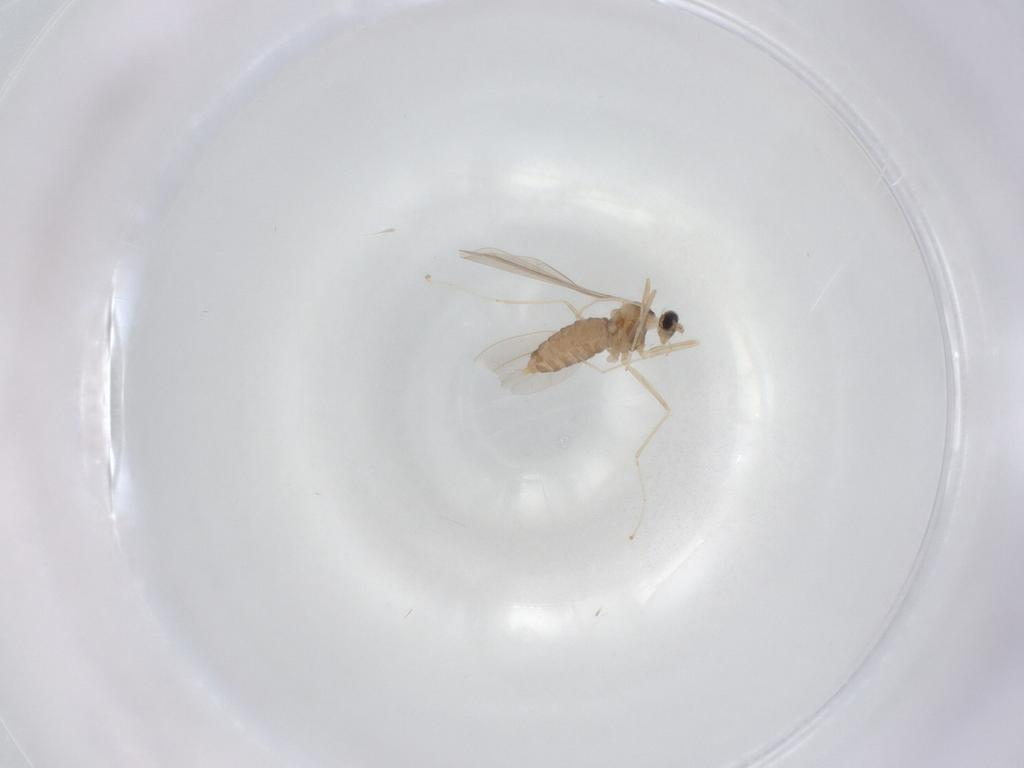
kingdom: Animalia
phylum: Arthropoda
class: Insecta
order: Diptera
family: Cecidomyiidae
